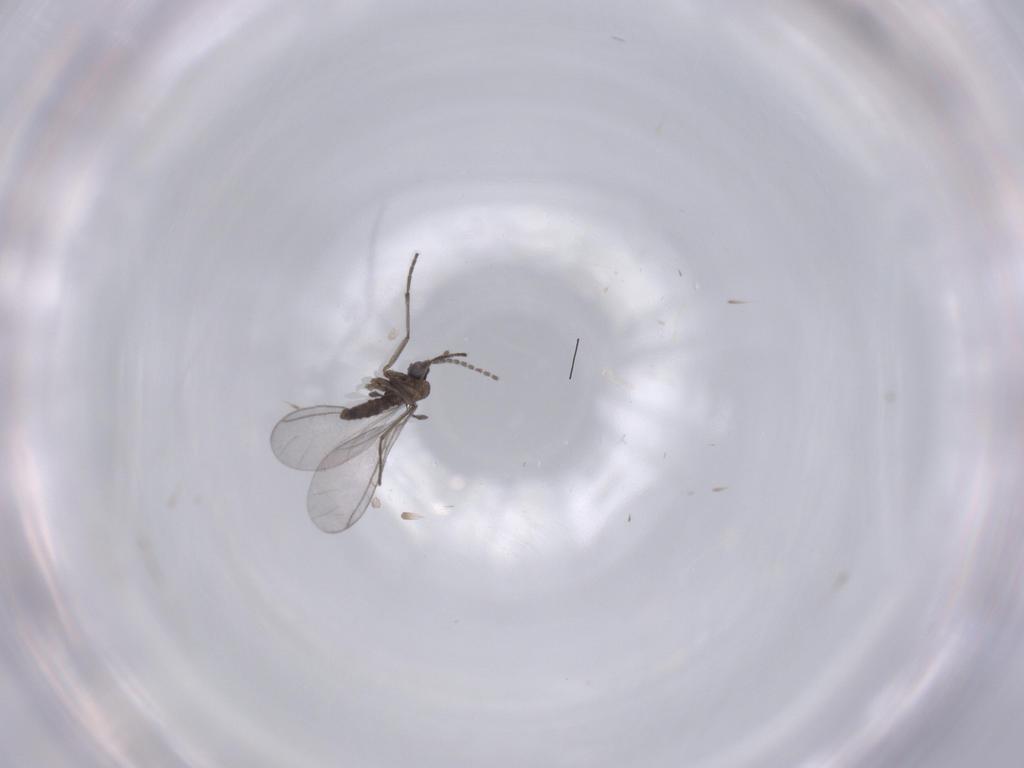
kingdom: Animalia
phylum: Arthropoda
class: Insecta
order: Diptera
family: Sciaridae
